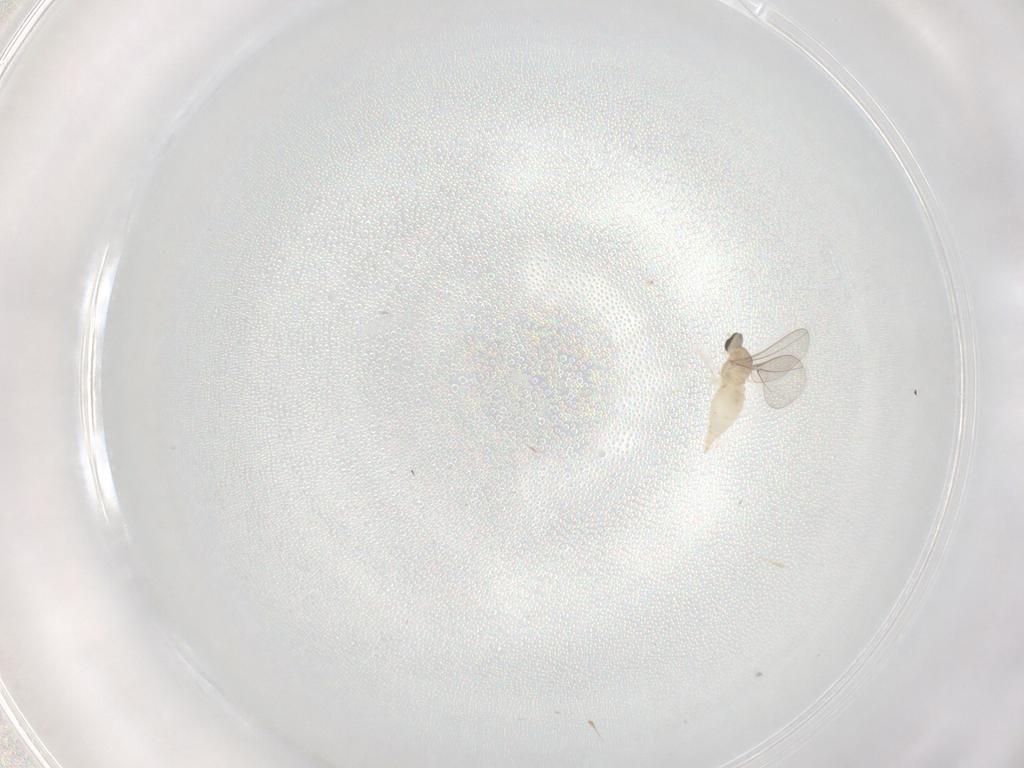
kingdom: Animalia
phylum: Arthropoda
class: Insecta
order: Diptera
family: Cecidomyiidae
